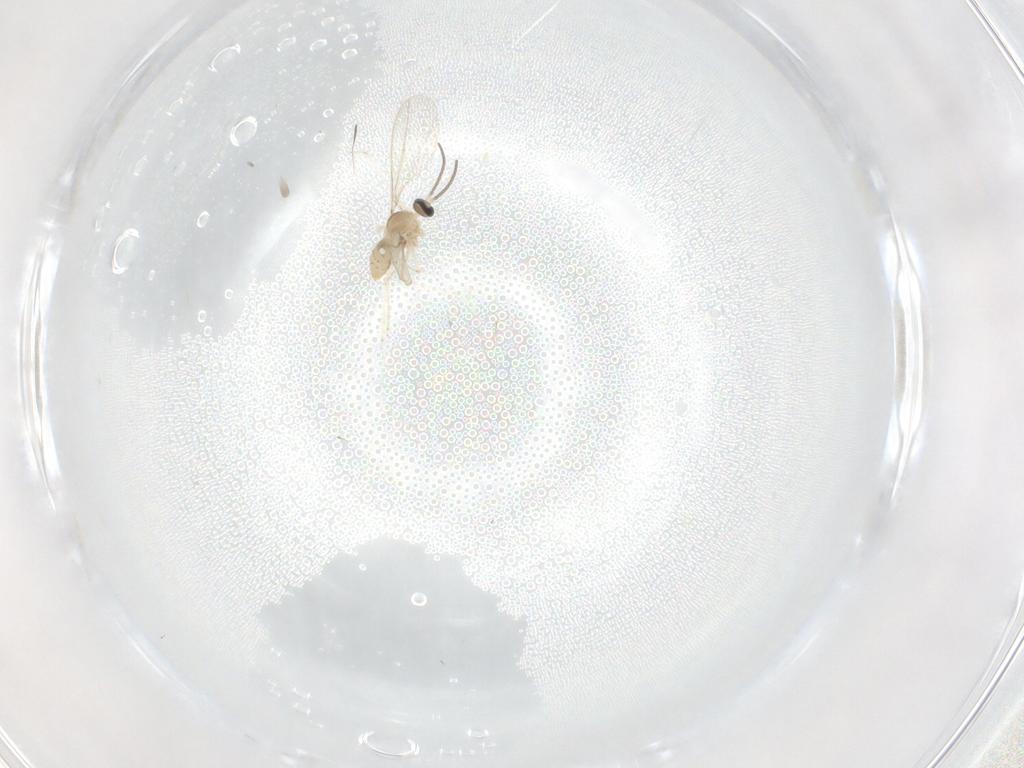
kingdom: Animalia
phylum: Arthropoda
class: Insecta
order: Diptera
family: Cecidomyiidae
